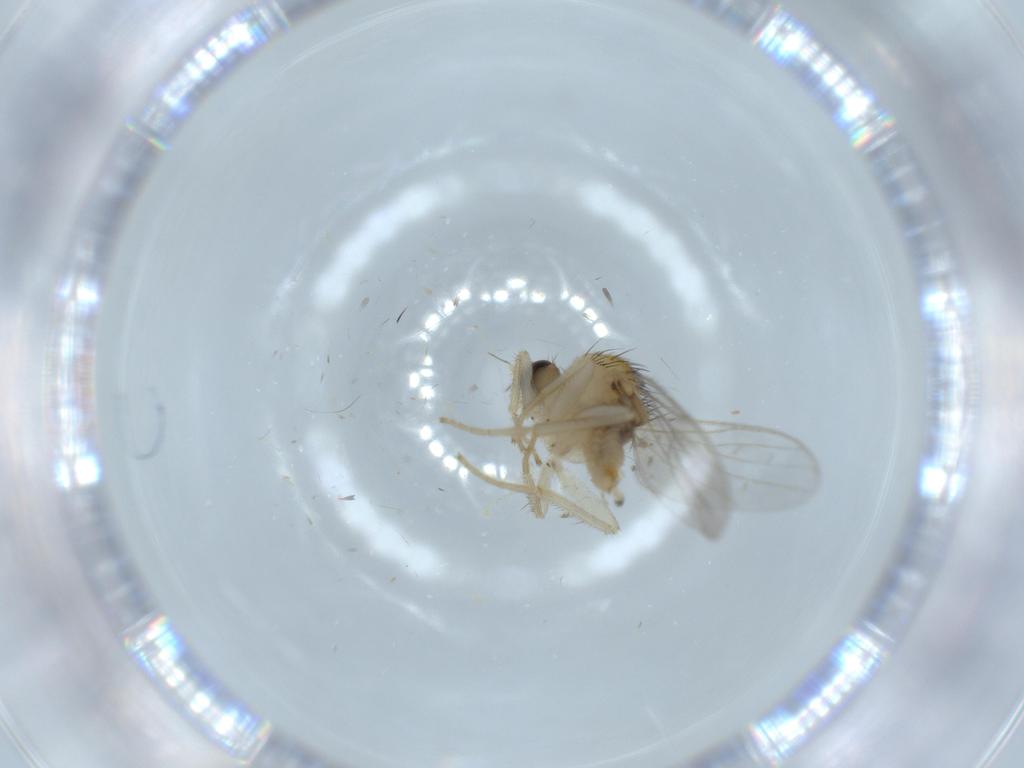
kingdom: Animalia
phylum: Arthropoda
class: Insecta
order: Diptera
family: Hybotidae
